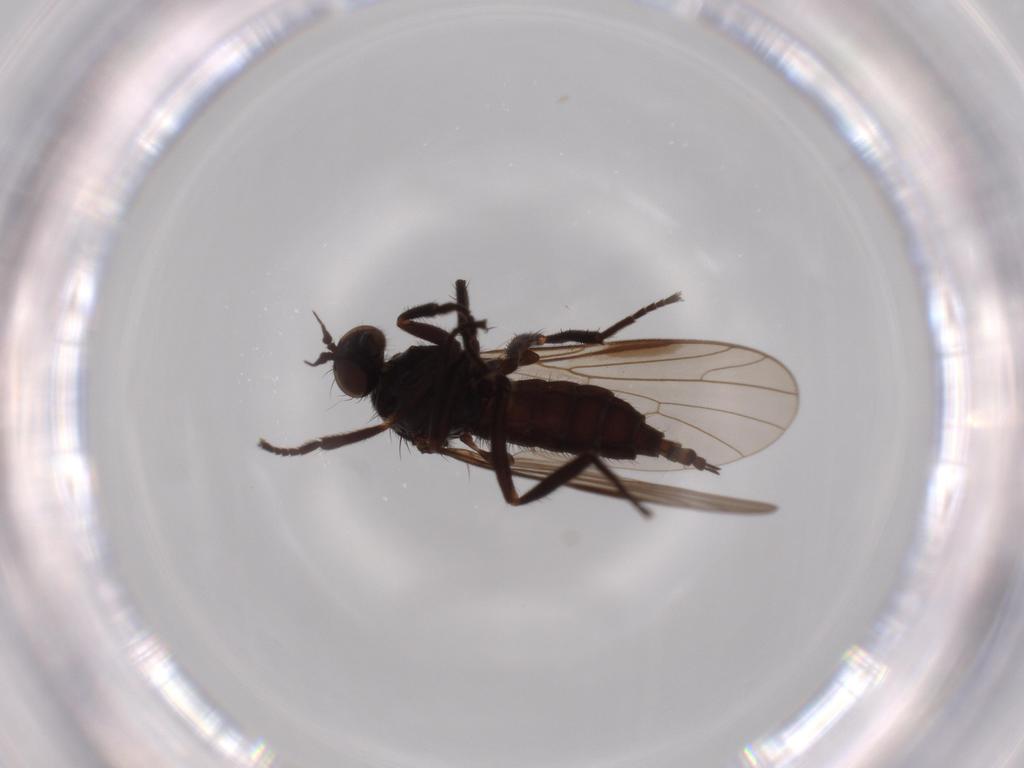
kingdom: Animalia
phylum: Arthropoda
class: Insecta
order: Diptera
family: Empididae
